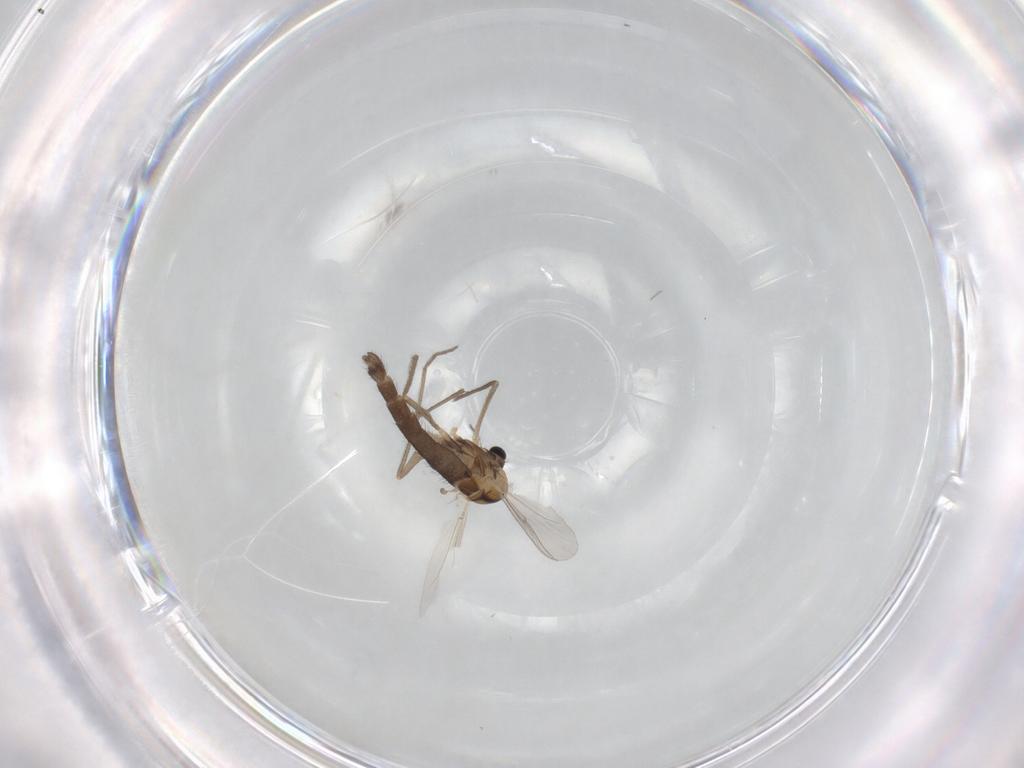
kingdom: Animalia
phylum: Arthropoda
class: Insecta
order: Diptera
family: Chironomidae
